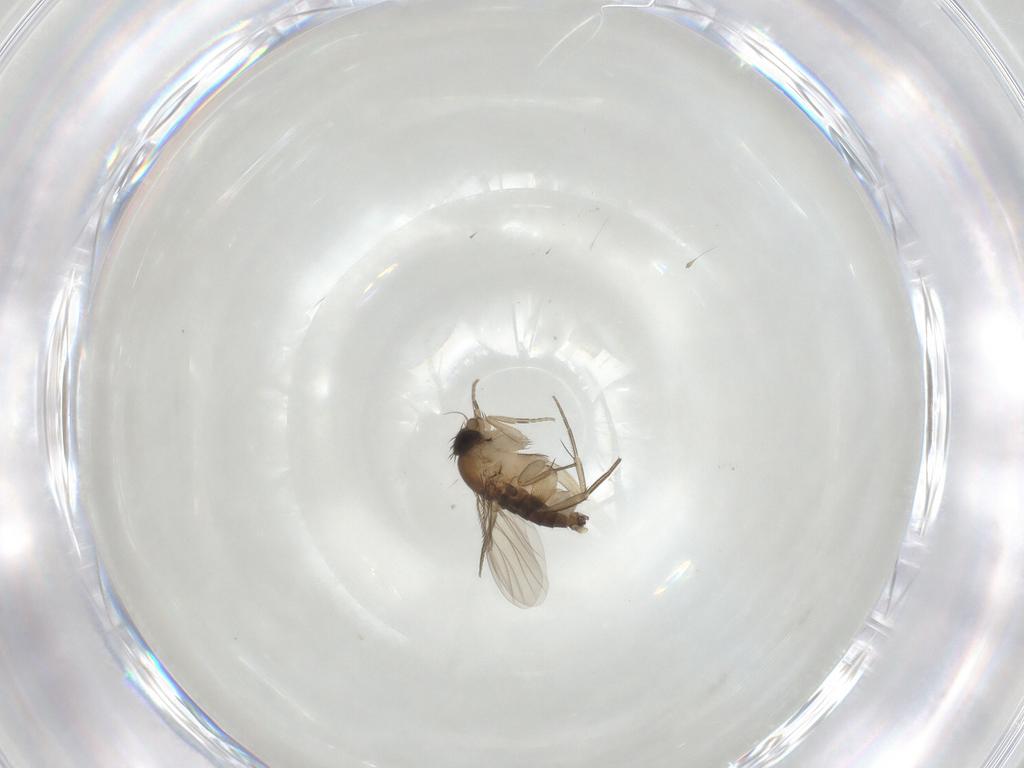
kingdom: Animalia
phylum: Arthropoda
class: Insecta
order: Diptera
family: Phoridae
